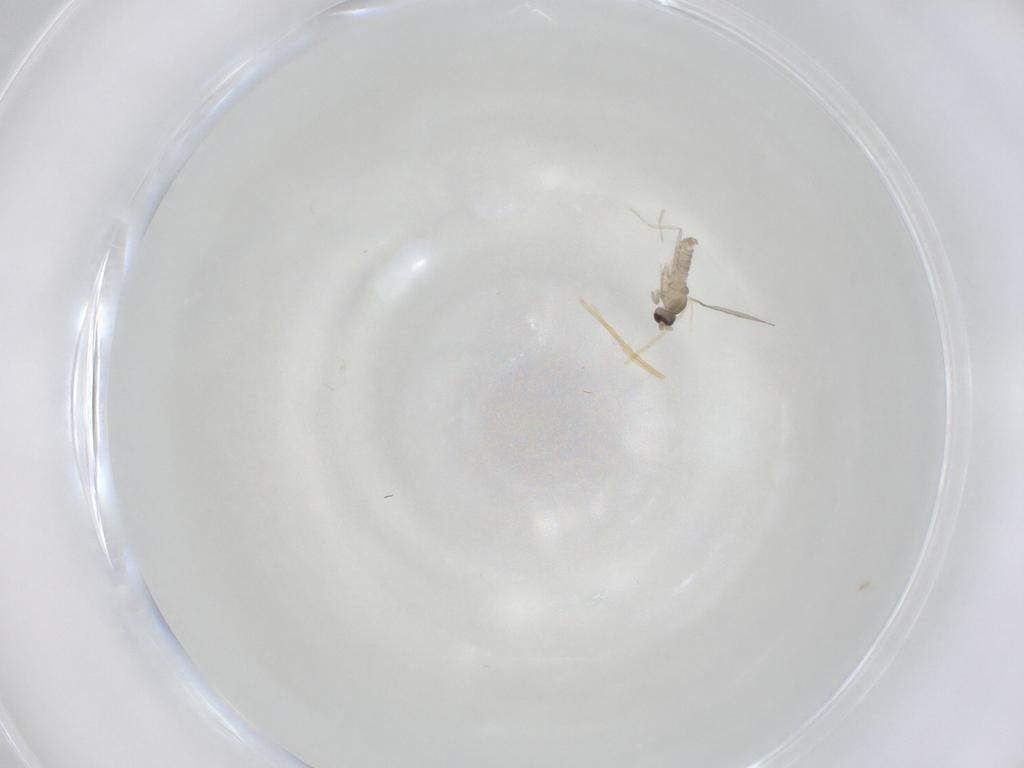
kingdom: Animalia
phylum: Arthropoda
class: Insecta
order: Diptera
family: Cecidomyiidae
